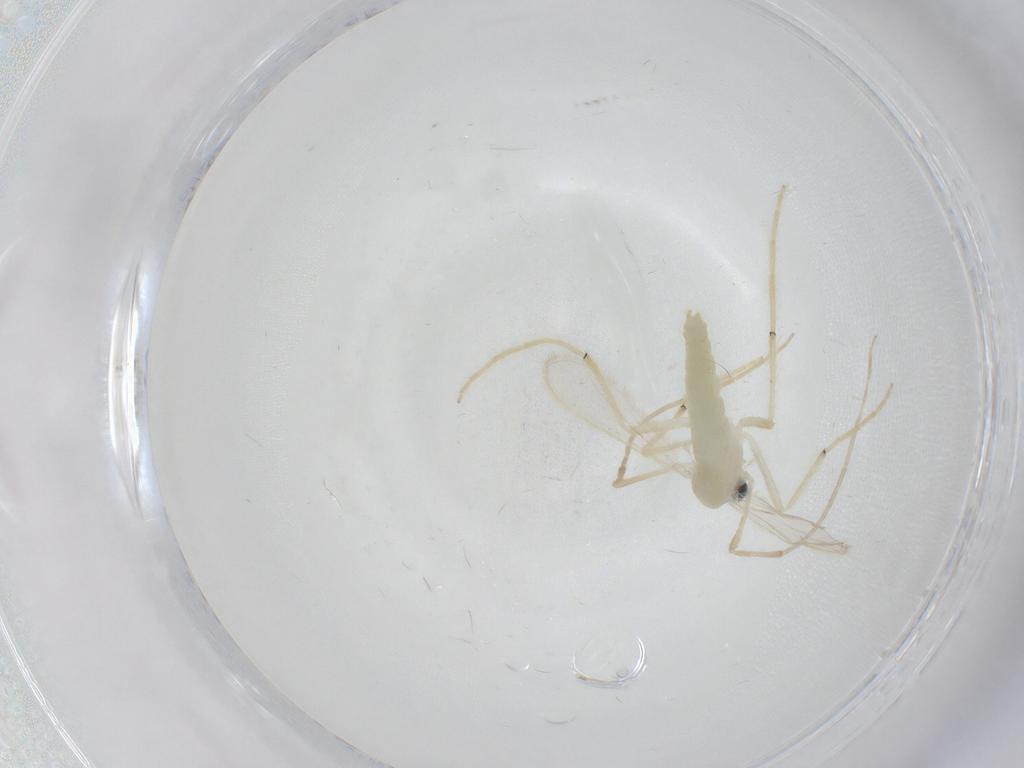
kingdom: Animalia
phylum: Arthropoda
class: Insecta
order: Diptera
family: Chironomidae
